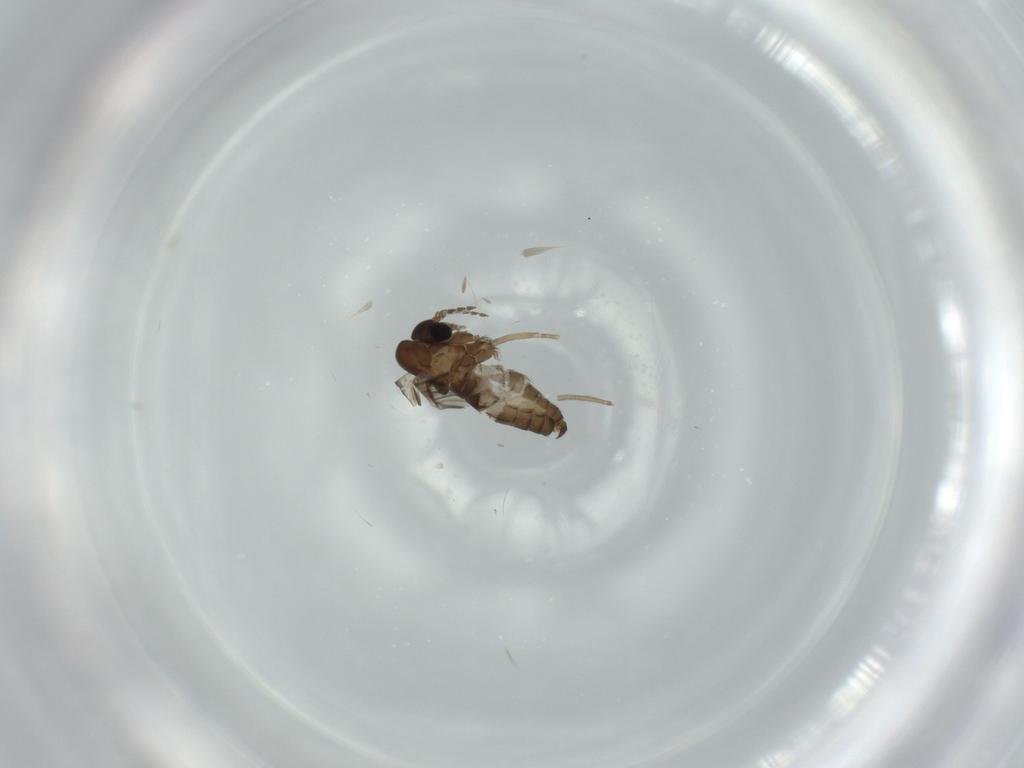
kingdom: Animalia
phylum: Arthropoda
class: Insecta
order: Diptera
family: Psychodidae
